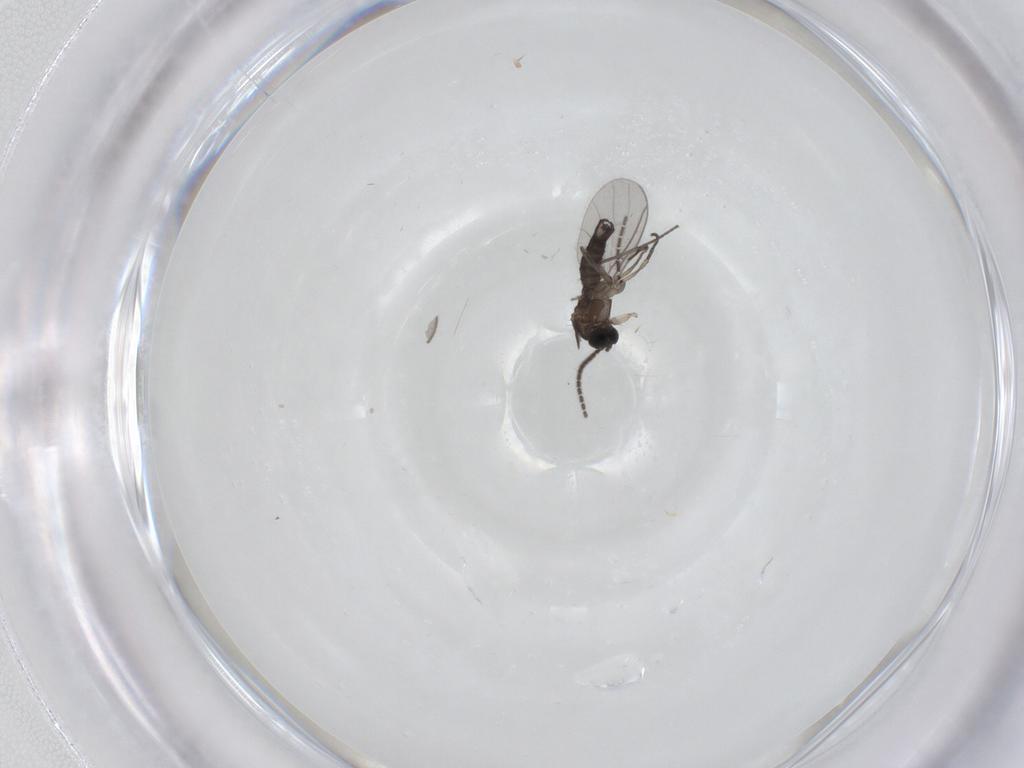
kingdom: Animalia
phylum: Arthropoda
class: Insecta
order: Diptera
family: Sciaridae
